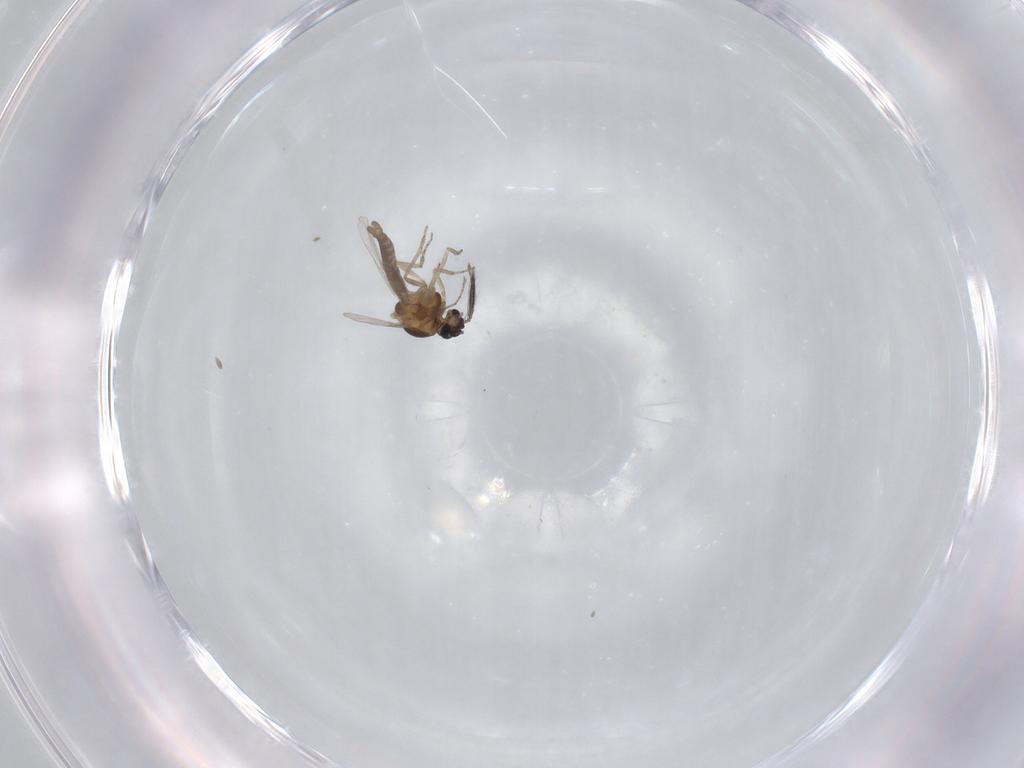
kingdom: Animalia
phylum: Arthropoda
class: Insecta
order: Diptera
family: Ceratopogonidae
